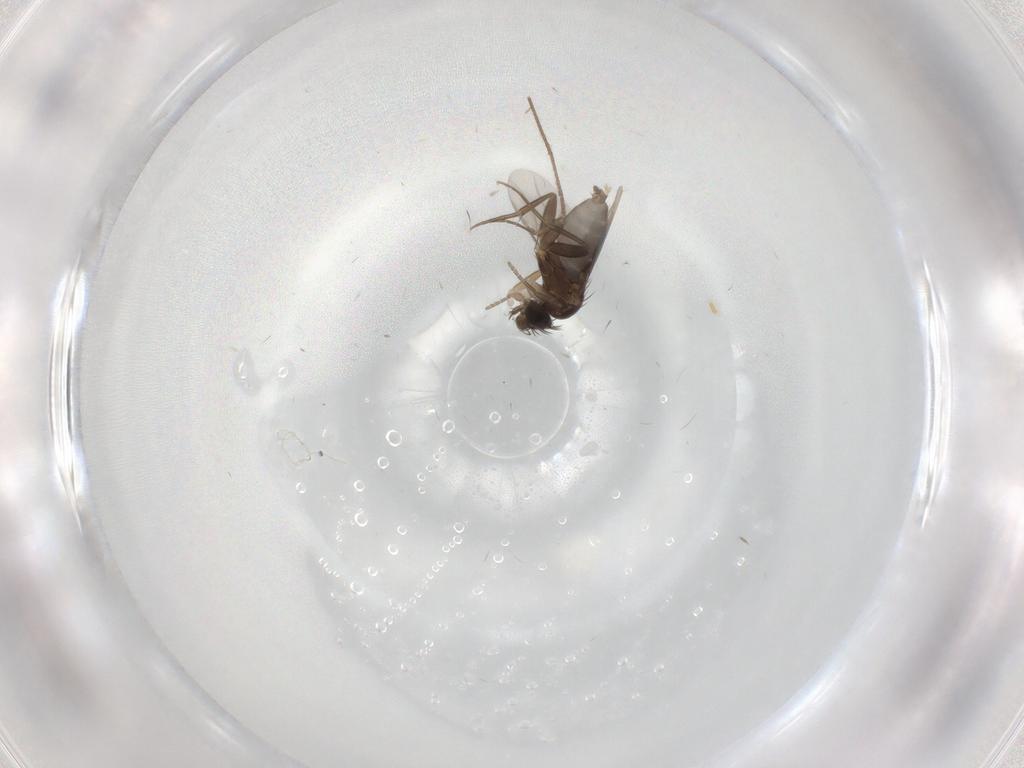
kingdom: Animalia
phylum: Arthropoda
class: Insecta
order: Diptera
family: Phoridae
